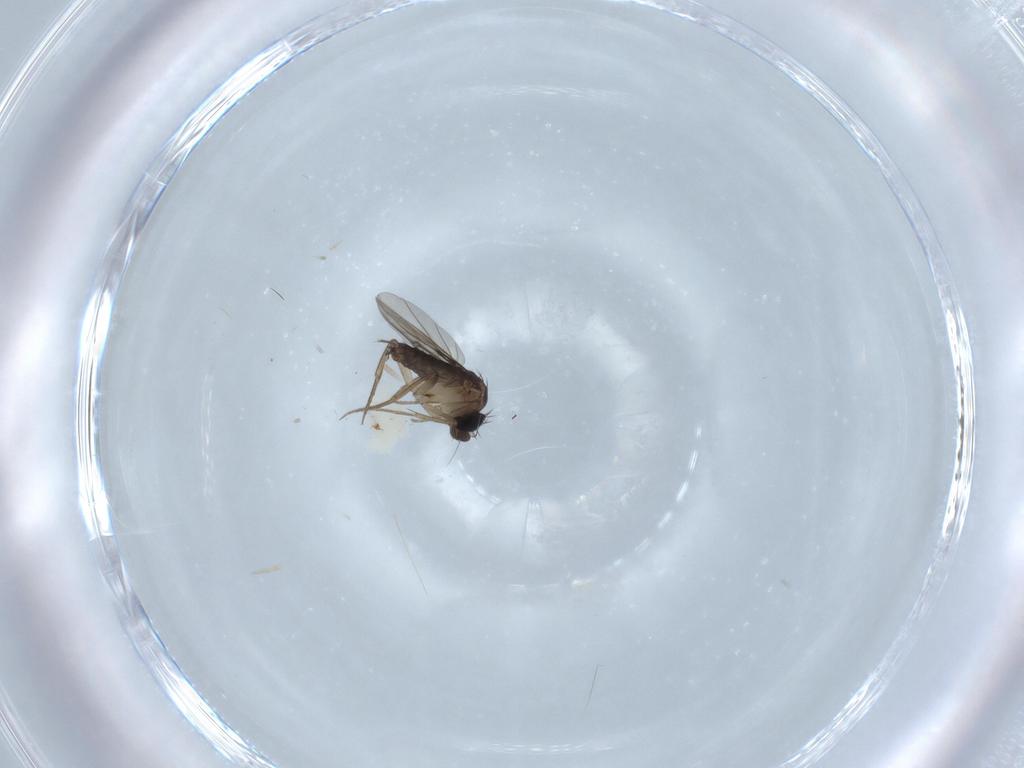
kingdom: Animalia
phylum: Arthropoda
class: Insecta
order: Diptera
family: Phoridae
